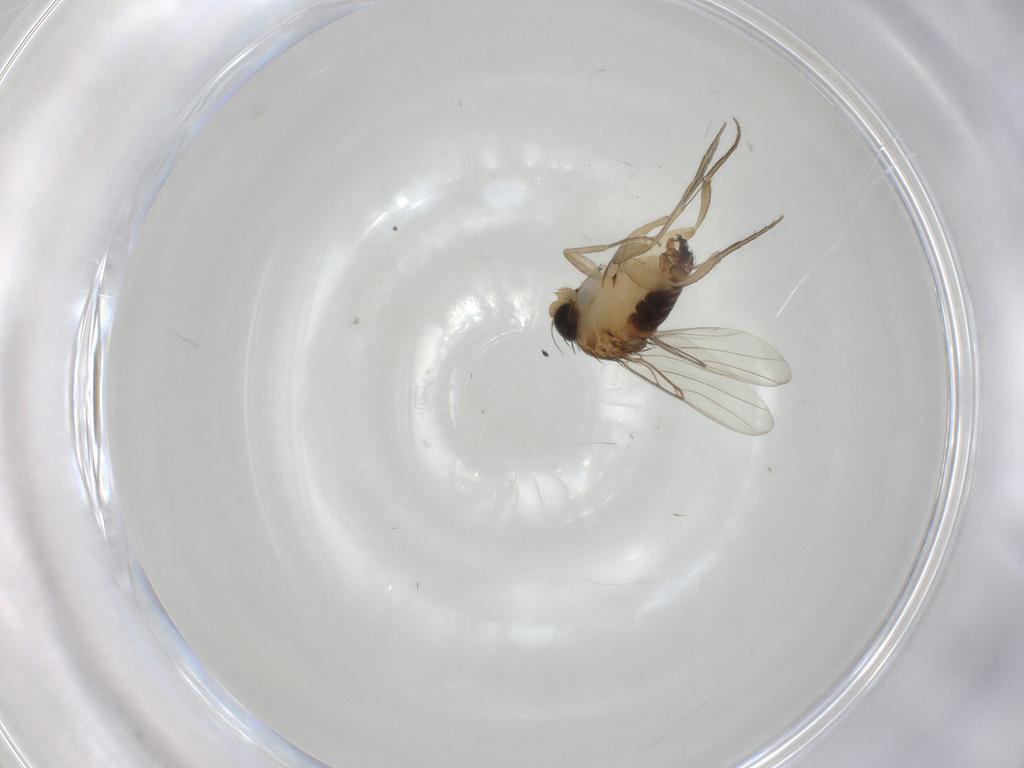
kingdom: Animalia
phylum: Arthropoda
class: Insecta
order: Diptera
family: Phoridae
